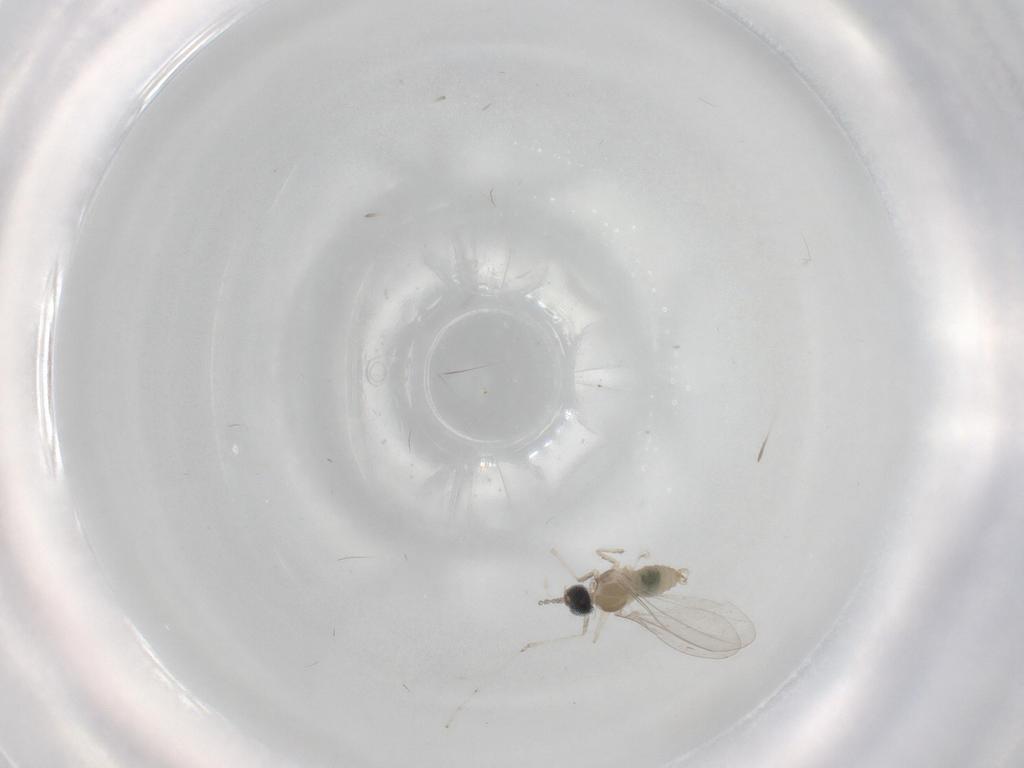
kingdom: Animalia
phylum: Arthropoda
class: Insecta
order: Diptera
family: Cecidomyiidae
